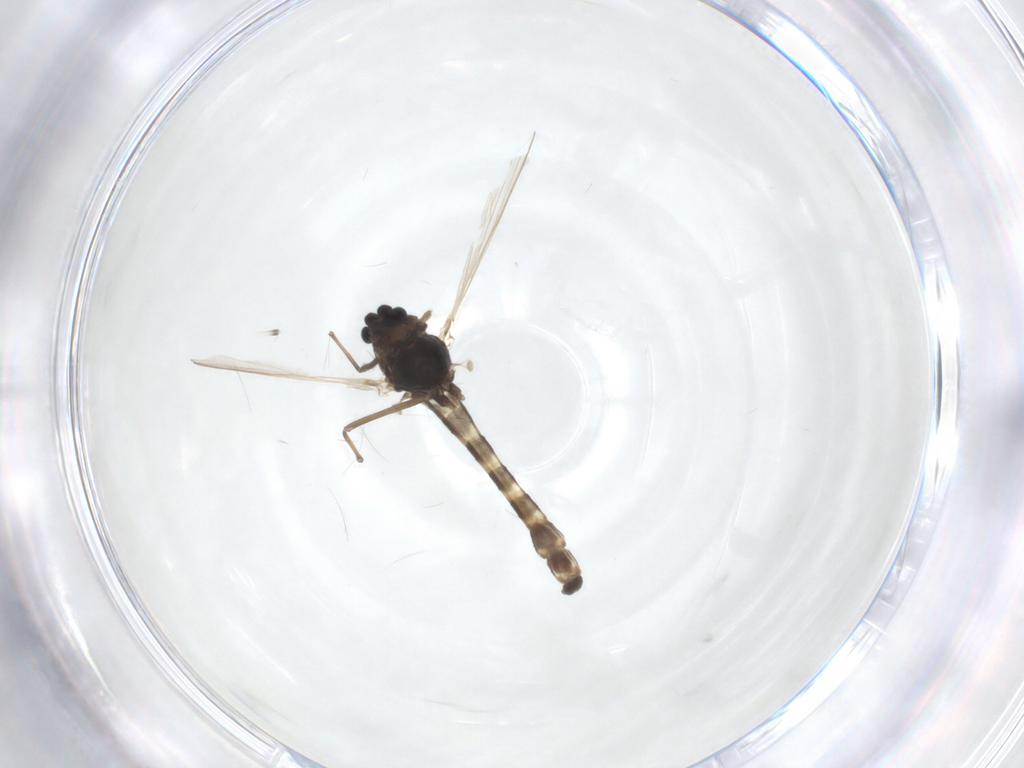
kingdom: Animalia
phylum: Arthropoda
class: Insecta
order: Diptera
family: Chironomidae
